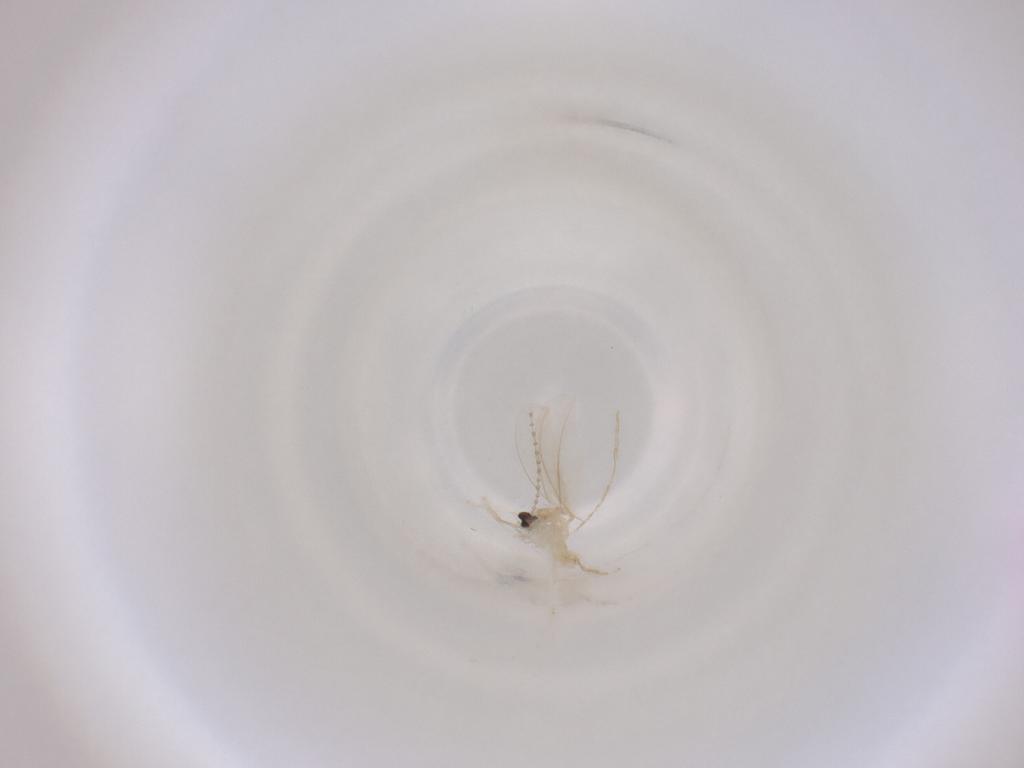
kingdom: Animalia
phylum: Arthropoda
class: Insecta
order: Diptera
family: Cecidomyiidae
